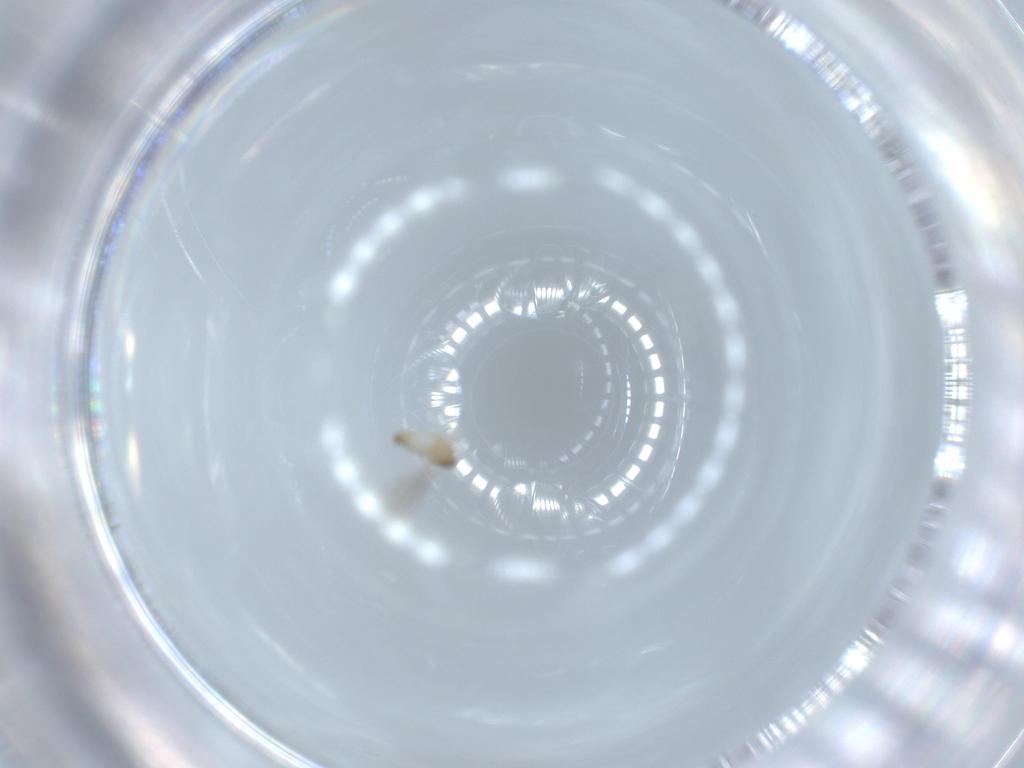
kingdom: Animalia
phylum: Arthropoda
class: Insecta
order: Diptera
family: Cecidomyiidae
